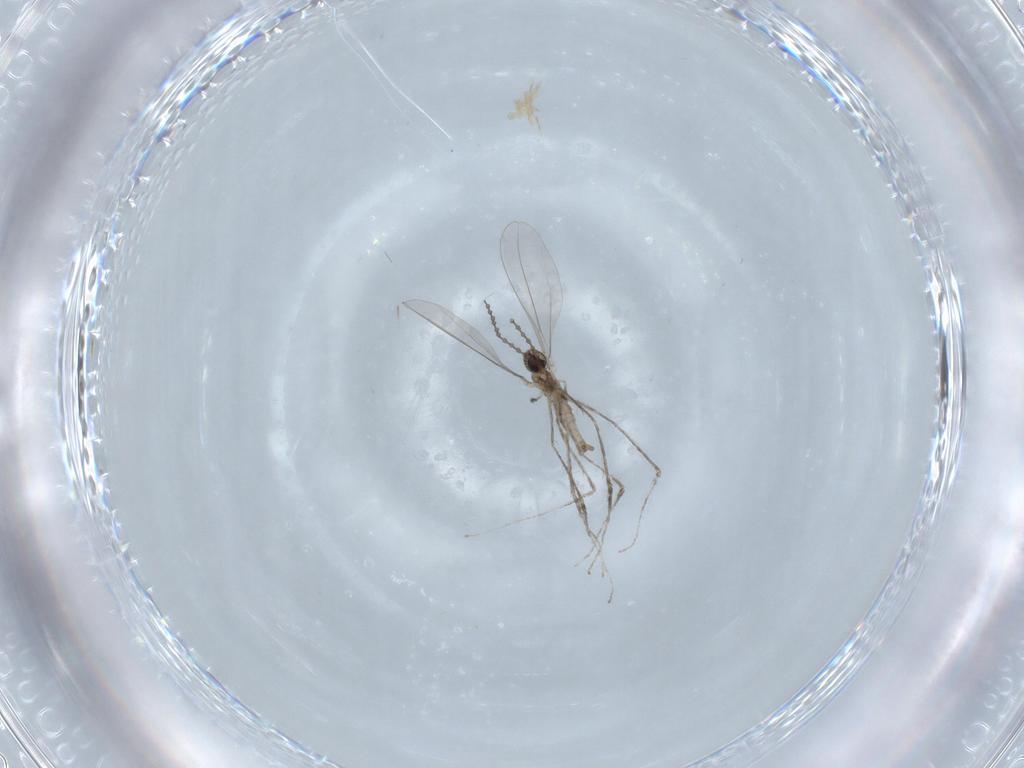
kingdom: Animalia
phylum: Arthropoda
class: Insecta
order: Diptera
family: Cecidomyiidae
